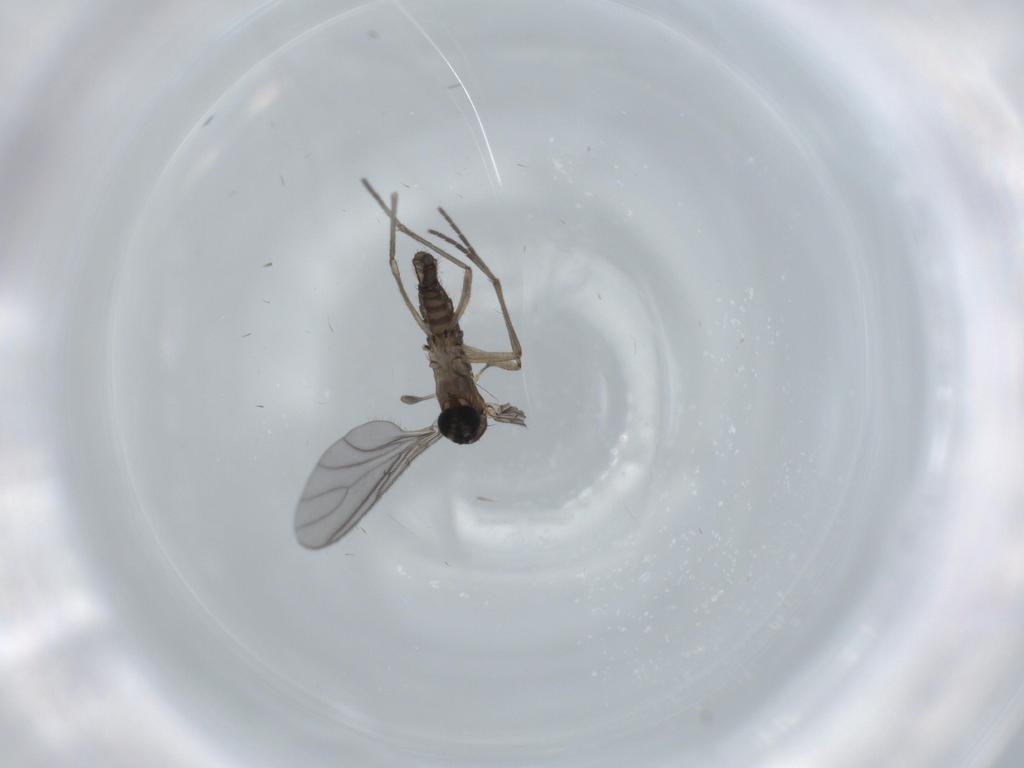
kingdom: Animalia
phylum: Arthropoda
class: Insecta
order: Diptera
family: Sciaridae
